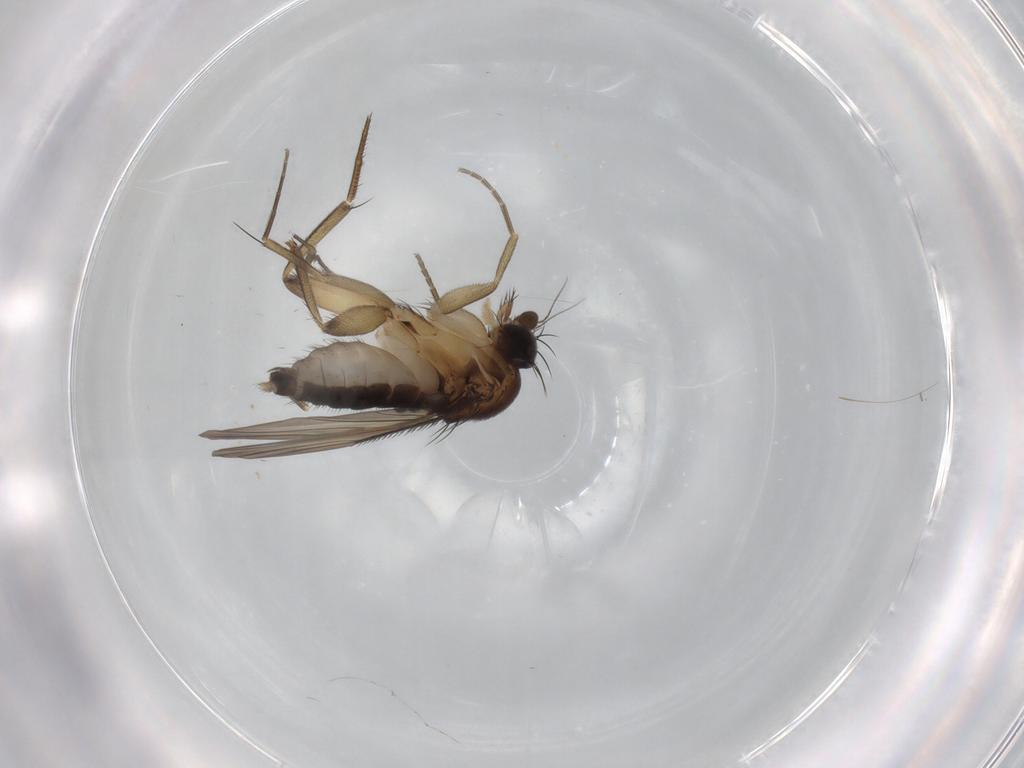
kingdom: Animalia
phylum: Arthropoda
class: Insecta
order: Diptera
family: Phoridae
